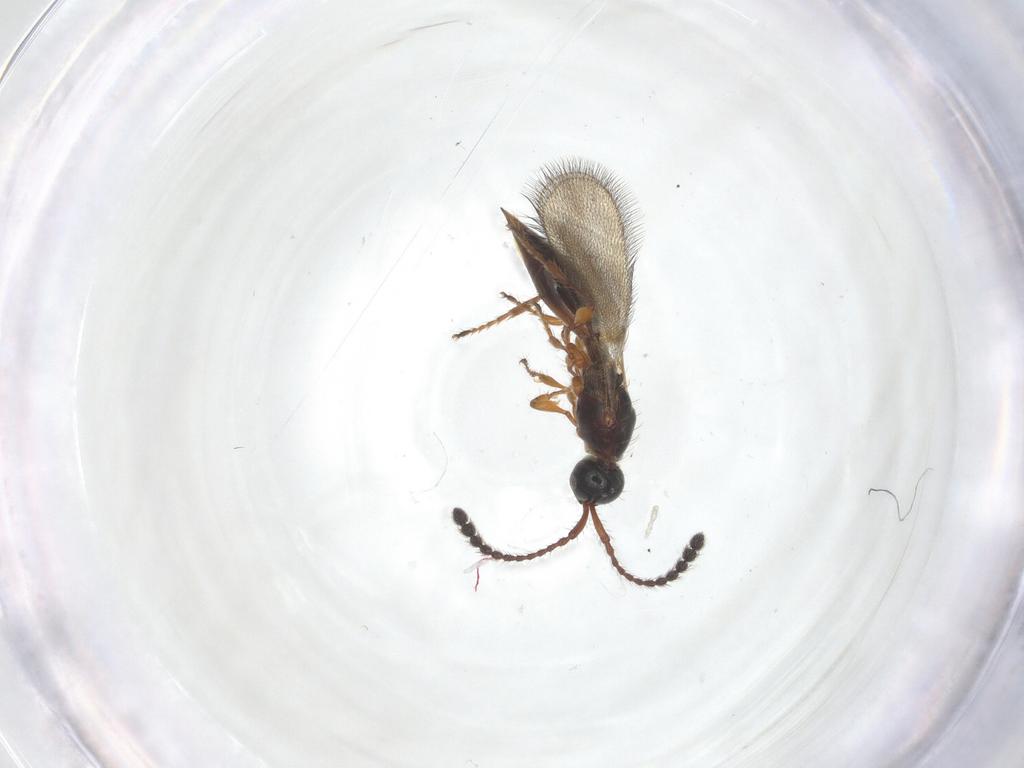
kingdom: Animalia
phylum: Arthropoda
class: Insecta
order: Hymenoptera
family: Diapriidae
